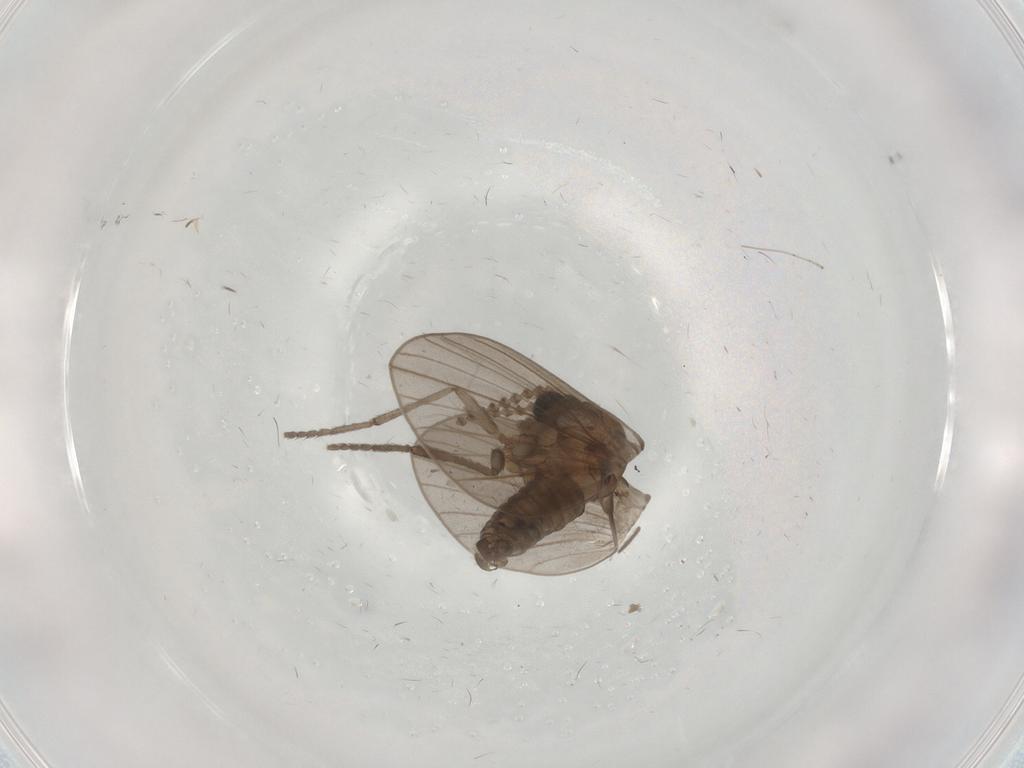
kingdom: Animalia
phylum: Arthropoda
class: Insecta
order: Diptera
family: Psychodidae
